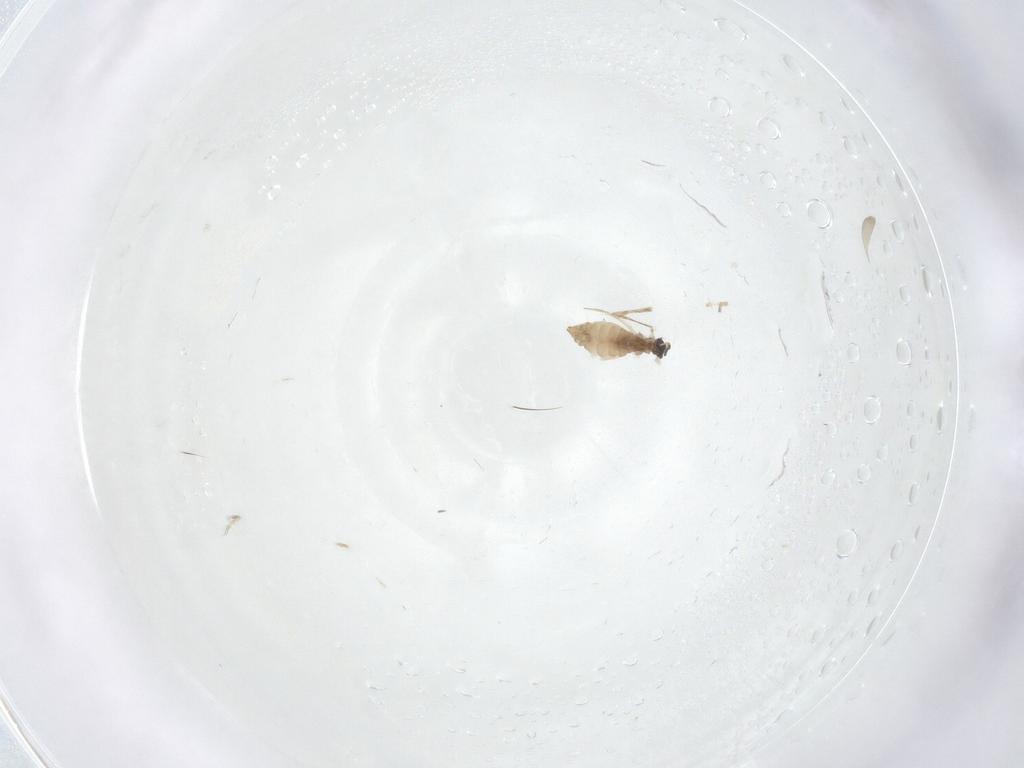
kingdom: Animalia
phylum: Arthropoda
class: Insecta
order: Diptera
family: Cecidomyiidae
